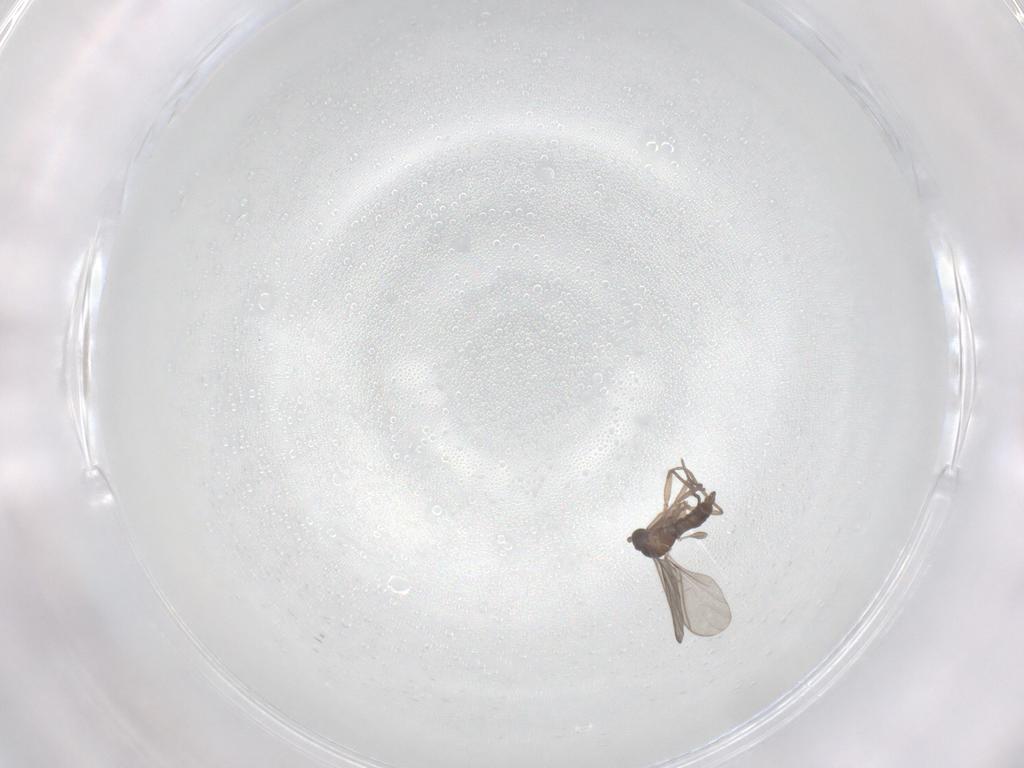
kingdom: Animalia
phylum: Arthropoda
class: Insecta
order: Diptera
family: Sciaridae
